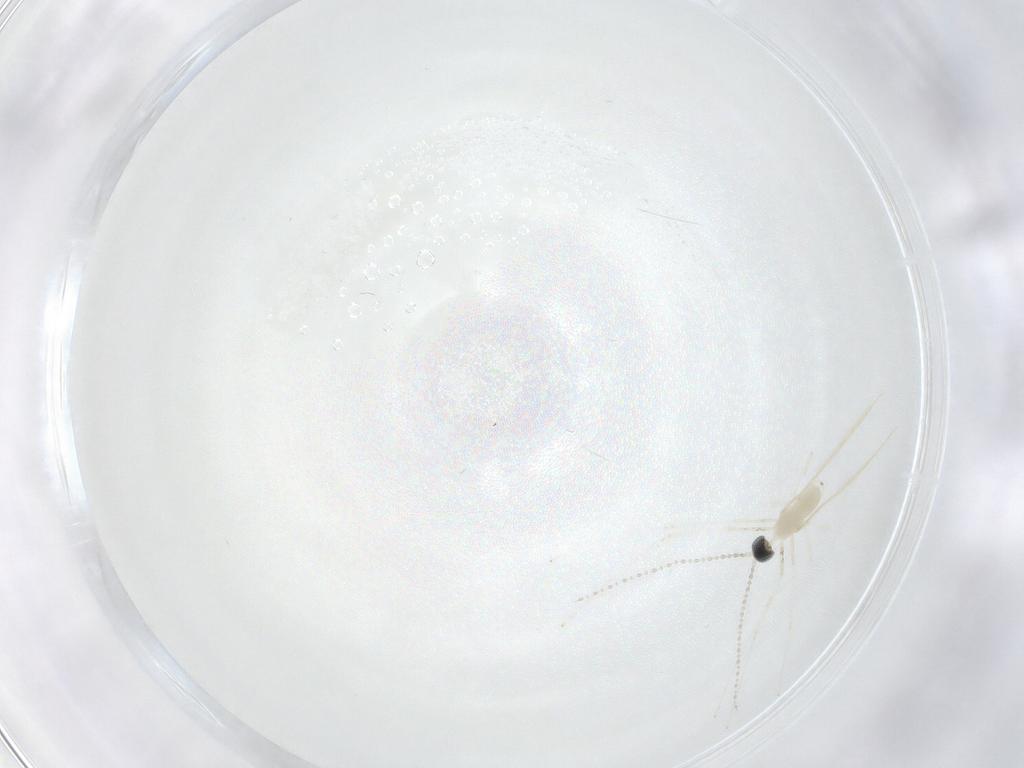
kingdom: Animalia
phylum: Arthropoda
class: Insecta
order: Diptera
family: Cecidomyiidae
